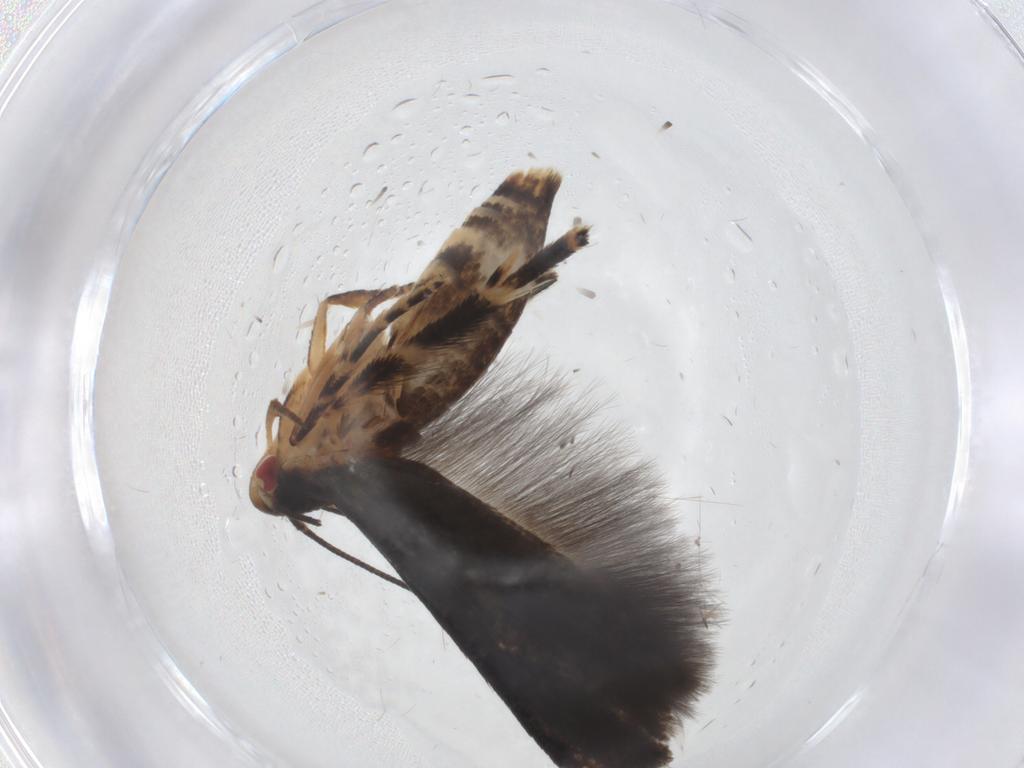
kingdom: Animalia
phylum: Arthropoda
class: Insecta
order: Lepidoptera
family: Momphidae
